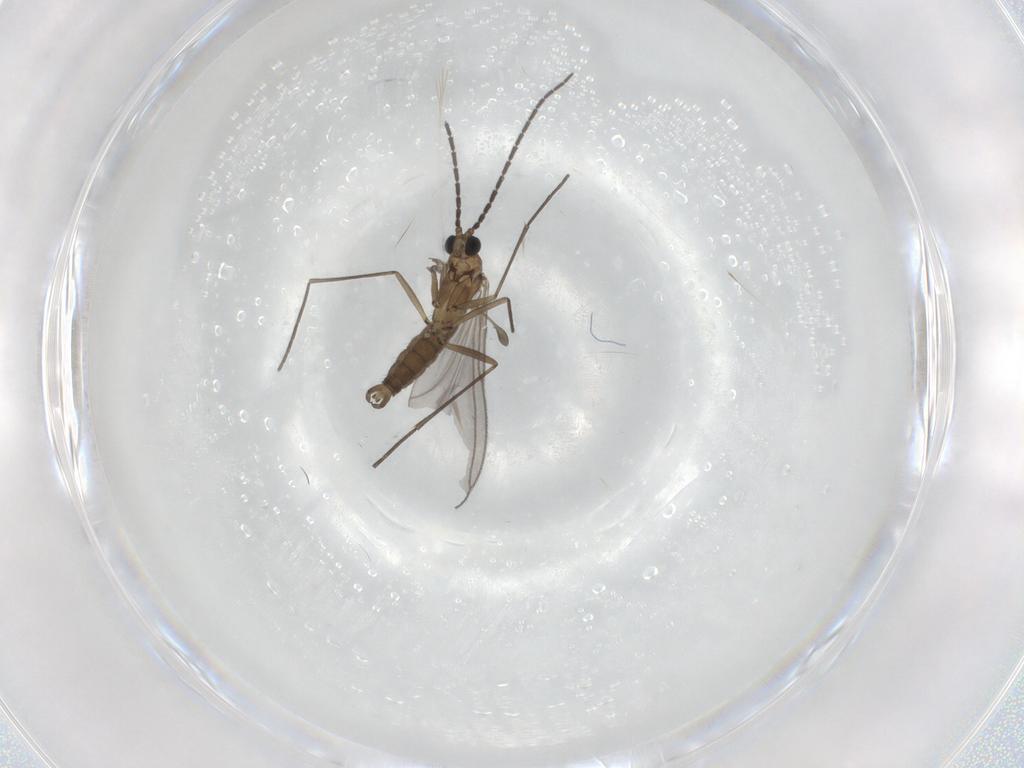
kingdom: Animalia
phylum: Arthropoda
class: Insecta
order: Diptera
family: Sciaridae
